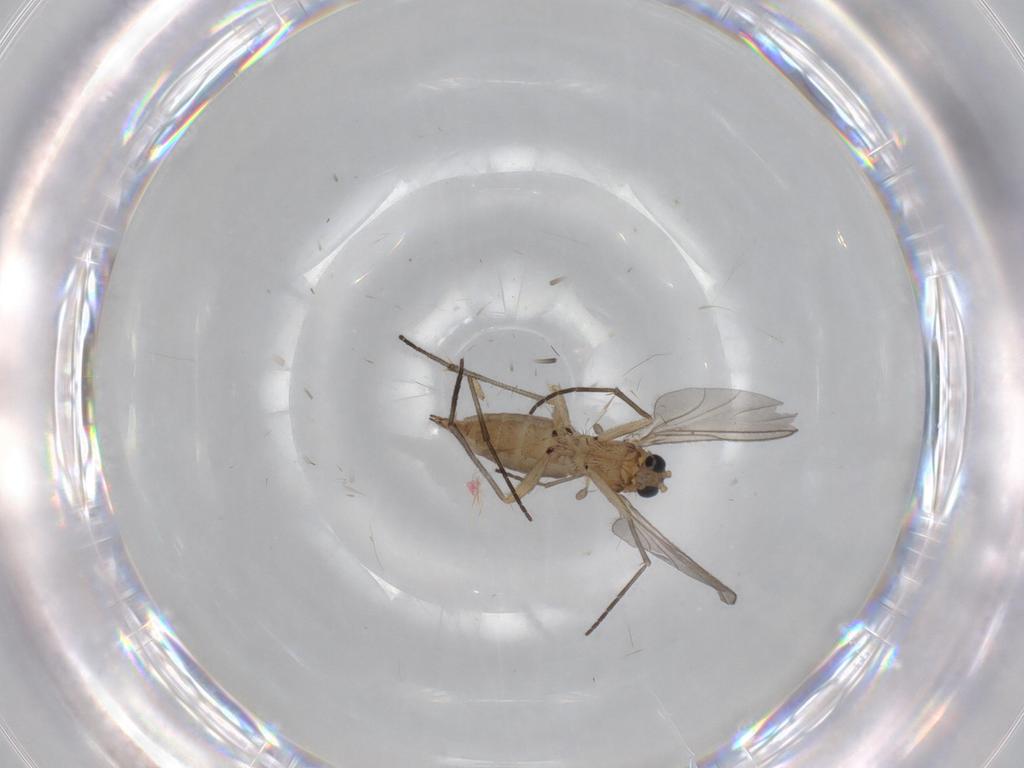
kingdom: Animalia
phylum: Arthropoda
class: Insecta
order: Diptera
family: Sciaridae
